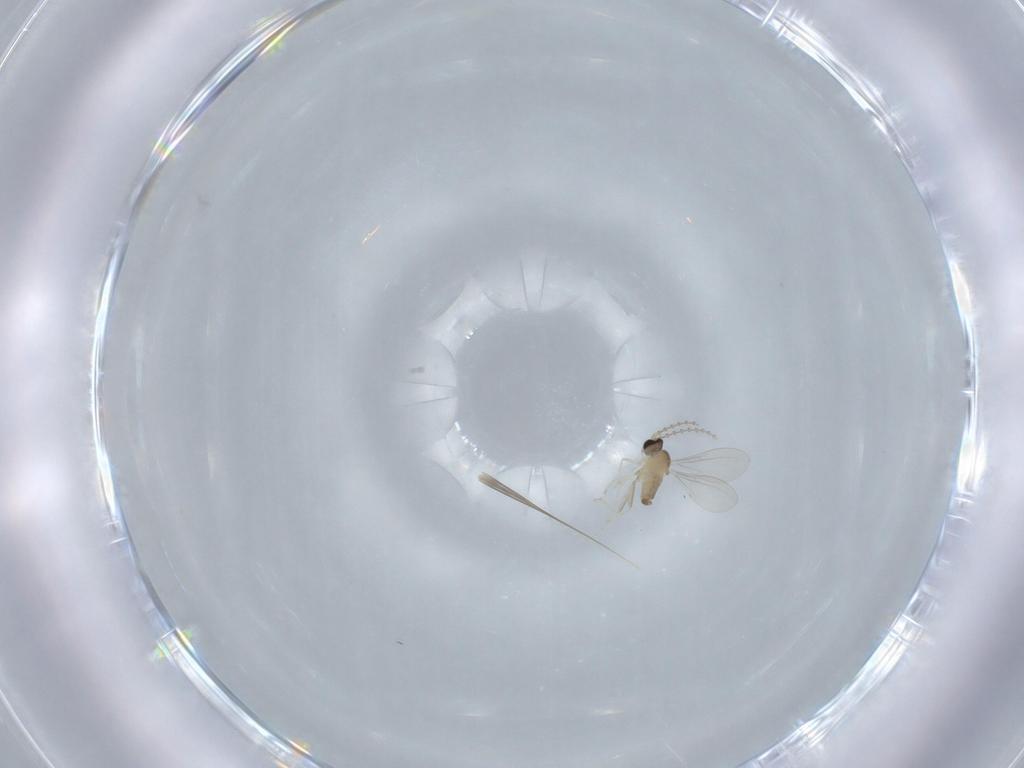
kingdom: Animalia
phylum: Arthropoda
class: Insecta
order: Diptera
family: Cecidomyiidae
